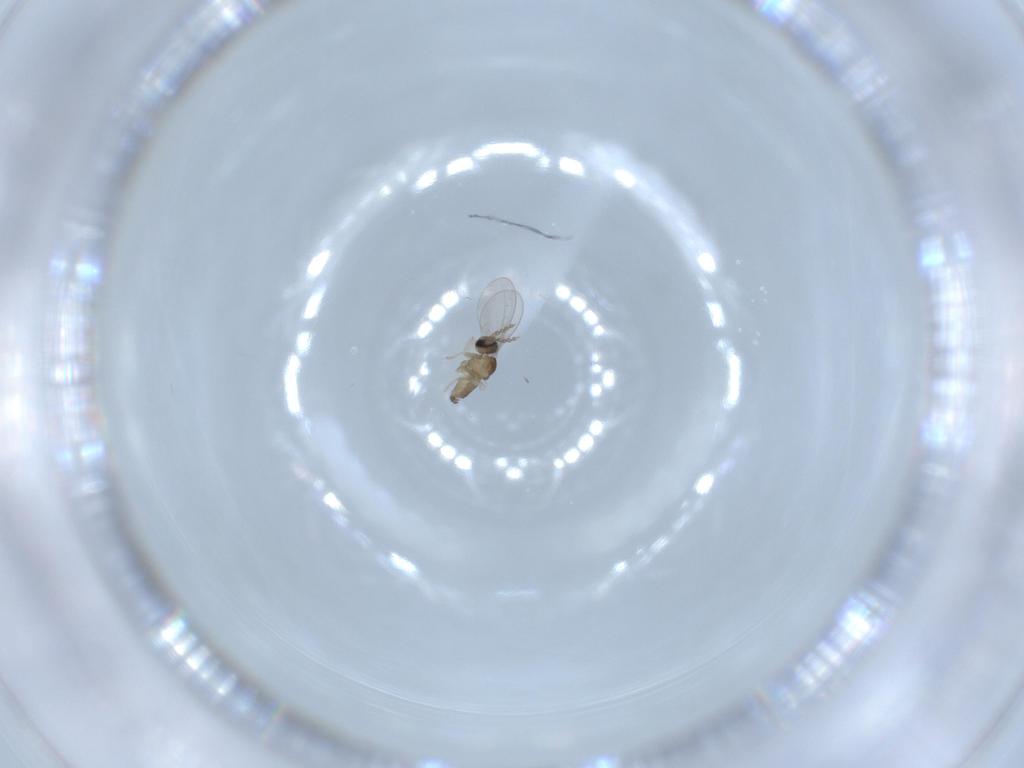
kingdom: Animalia
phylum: Arthropoda
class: Insecta
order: Diptera
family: Cecidomyiidae
